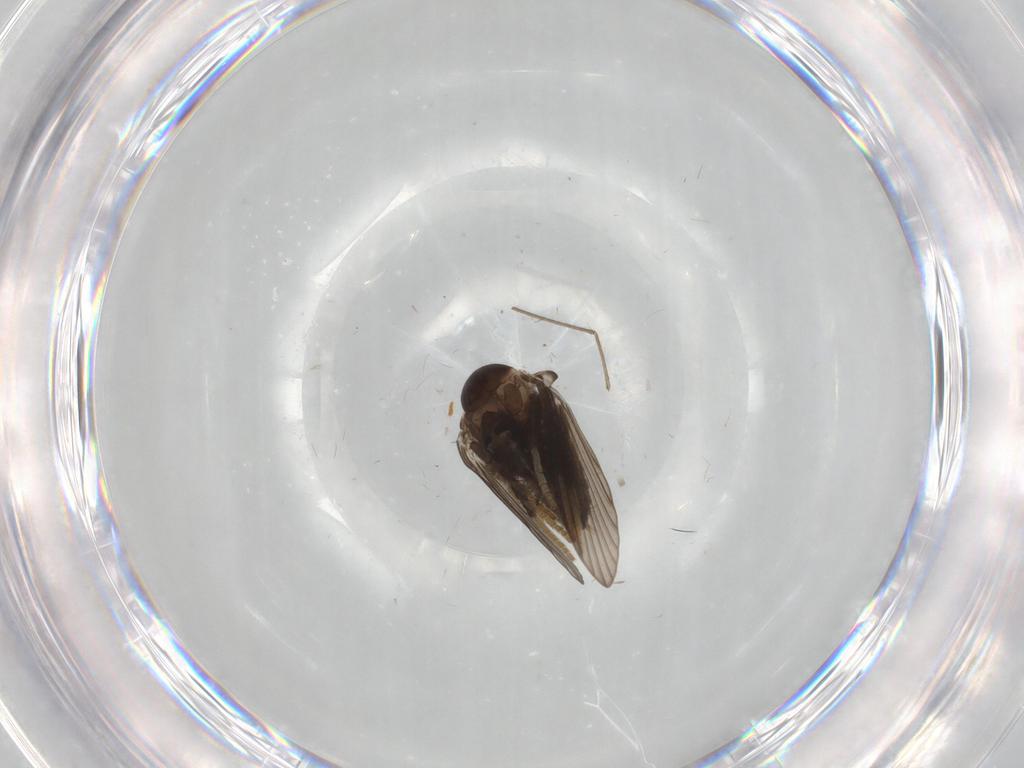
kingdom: Animalia
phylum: Arthropoda
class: Insecta
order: Diptera
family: Psychodidae
